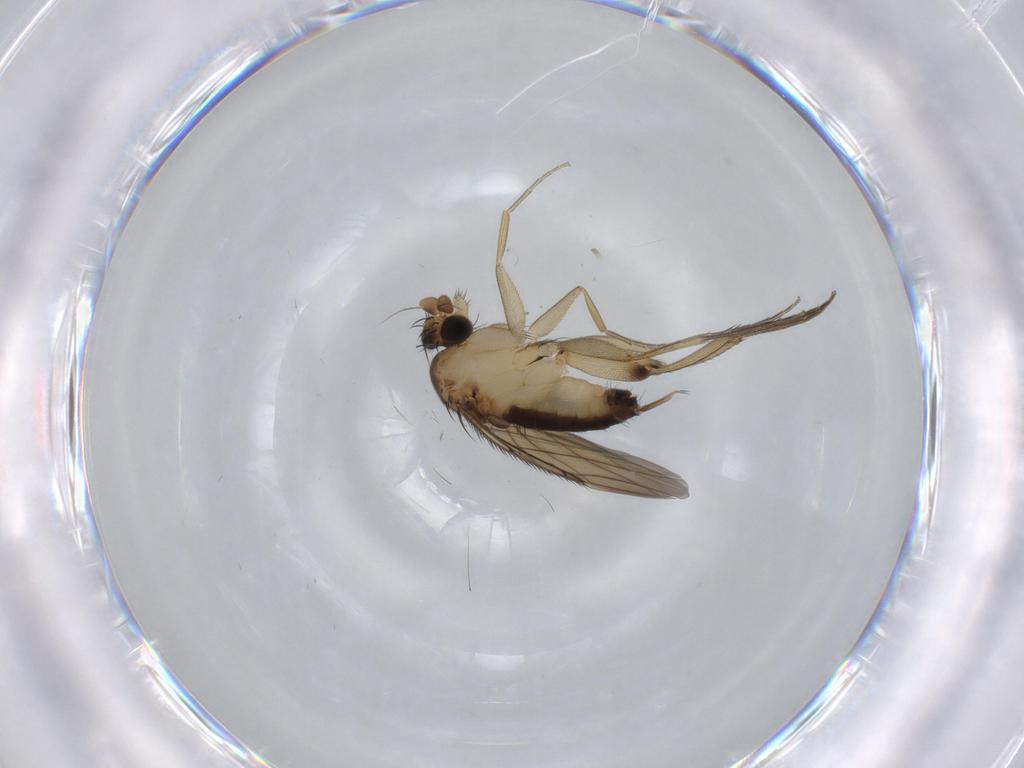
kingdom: Animalia
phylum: Arthropoda
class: Insecta
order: Diptera
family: Phoridae
